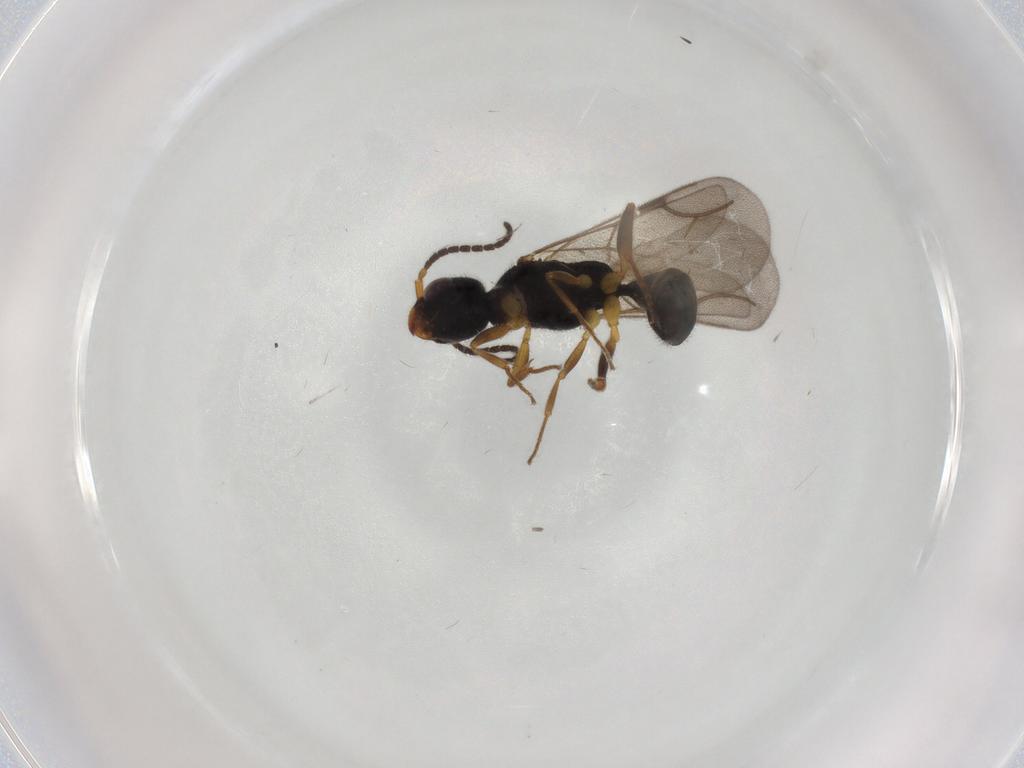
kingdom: Animalia
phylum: Arthropoda
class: Insecta
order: Hymenoptera
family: Bethylidae
